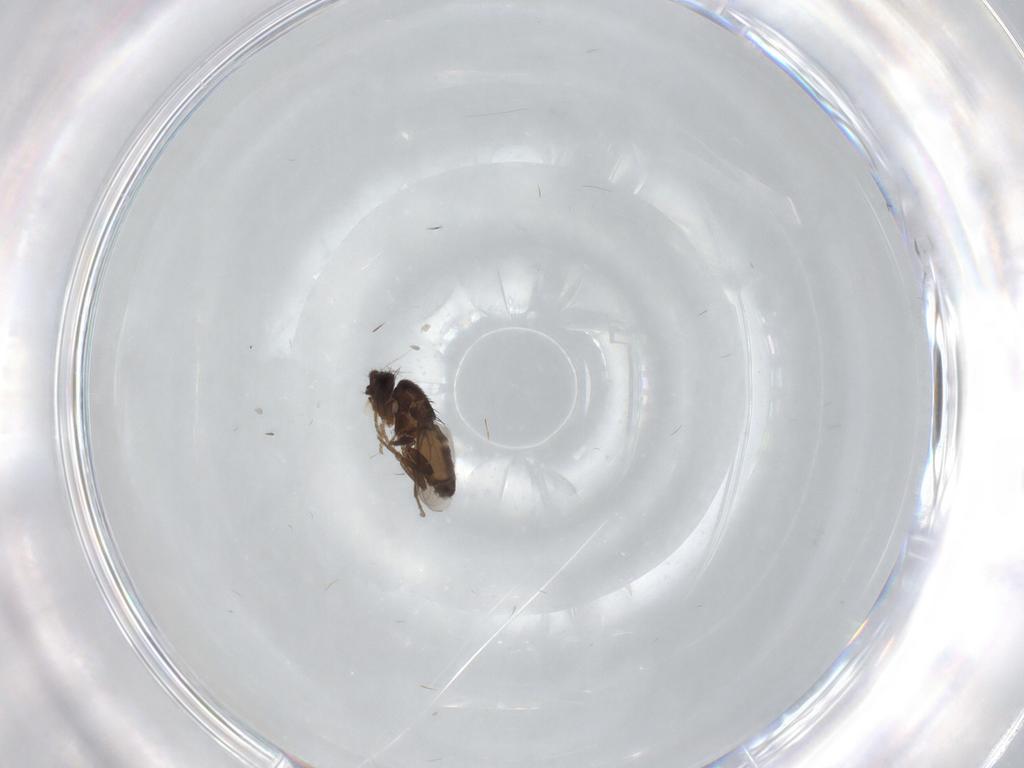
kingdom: Animalia
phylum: Arthropoda
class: Insecta
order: Diptera
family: Sphaeroceridae
